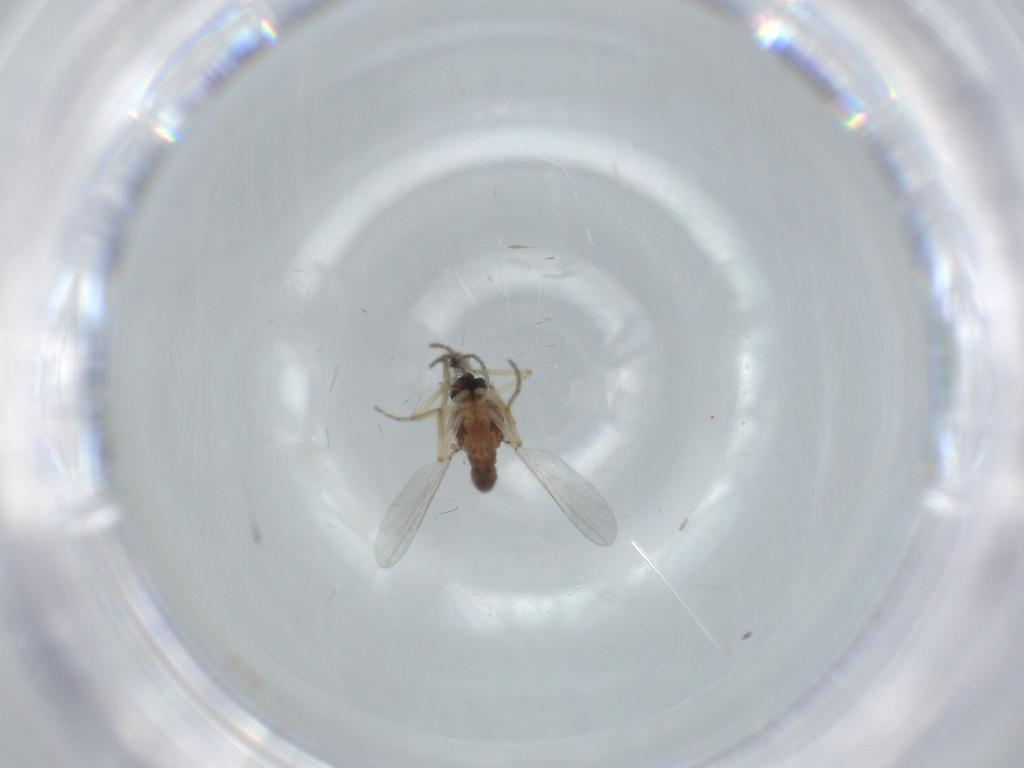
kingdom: Animalia
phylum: Arthropoda
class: Insecta
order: Diptera
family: Ceratopogonidae
